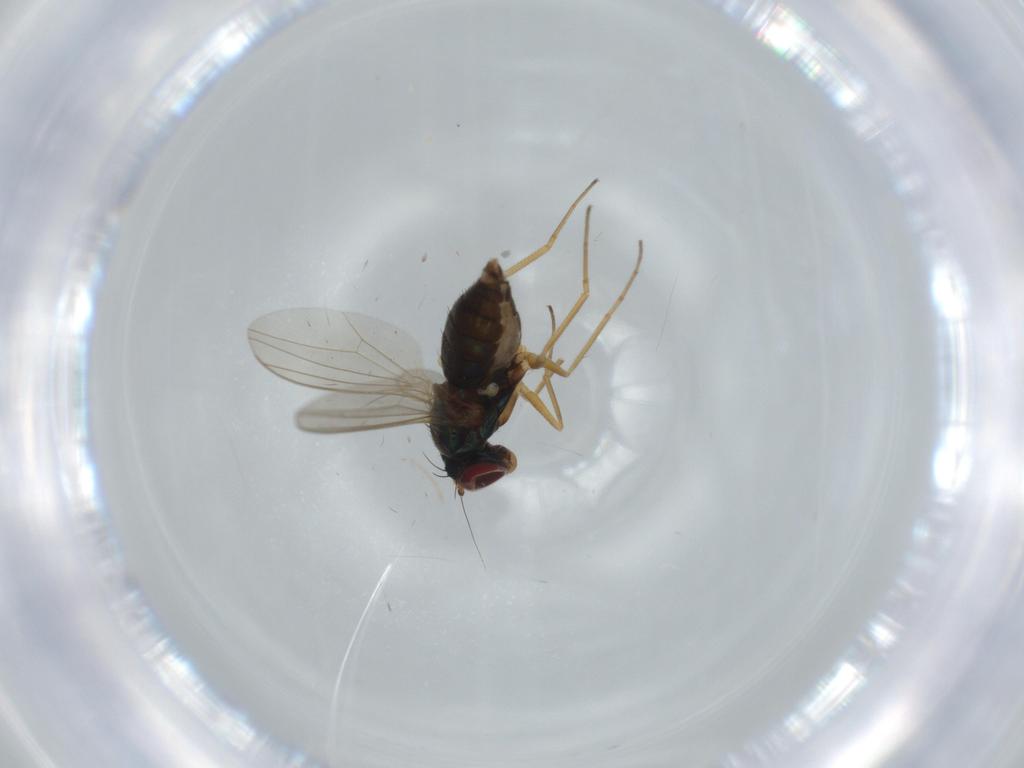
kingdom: Animalia
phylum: Arthropoda
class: Insecta
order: Diptera
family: Dolichopodidae
